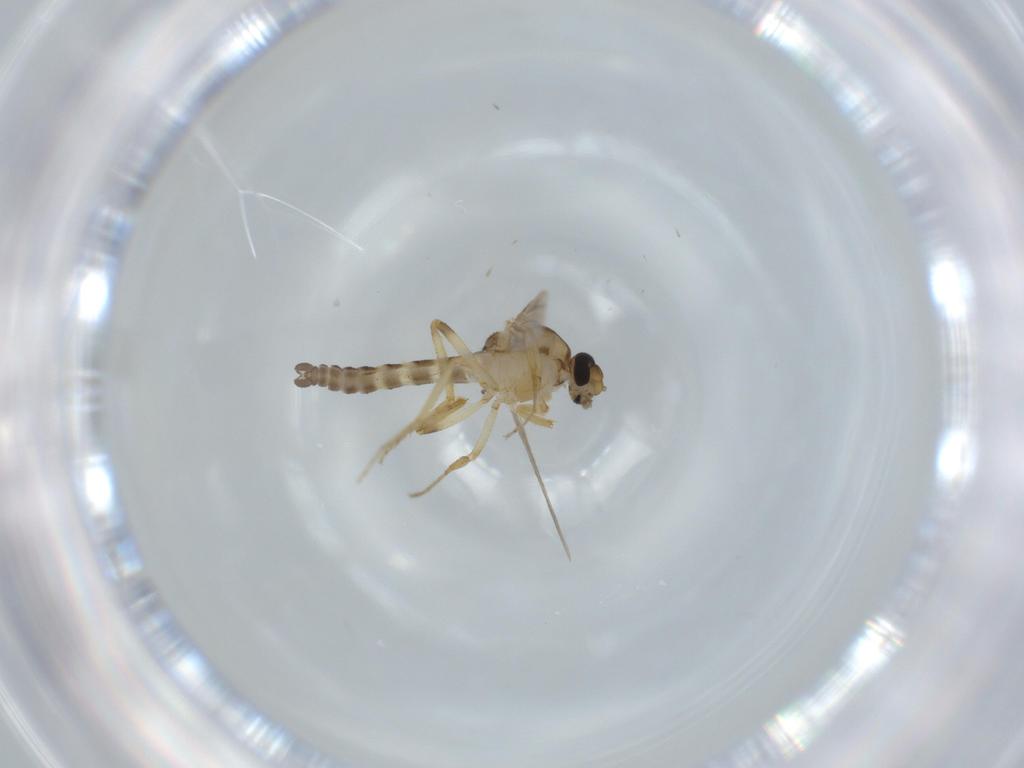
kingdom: Animalia
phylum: Arthropoda
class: Insecta
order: Diptera
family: Ceratopogonidae
